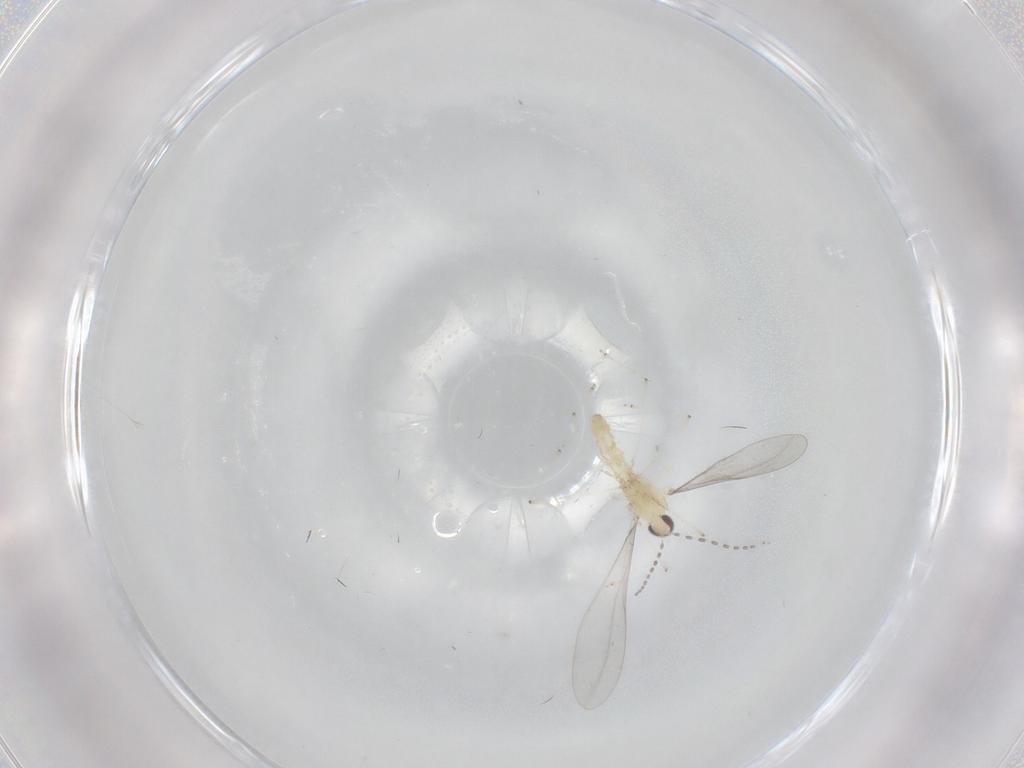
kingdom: Animalia
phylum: Arthropoda
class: Insecta
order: Diptera
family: Cecidomyiidae
